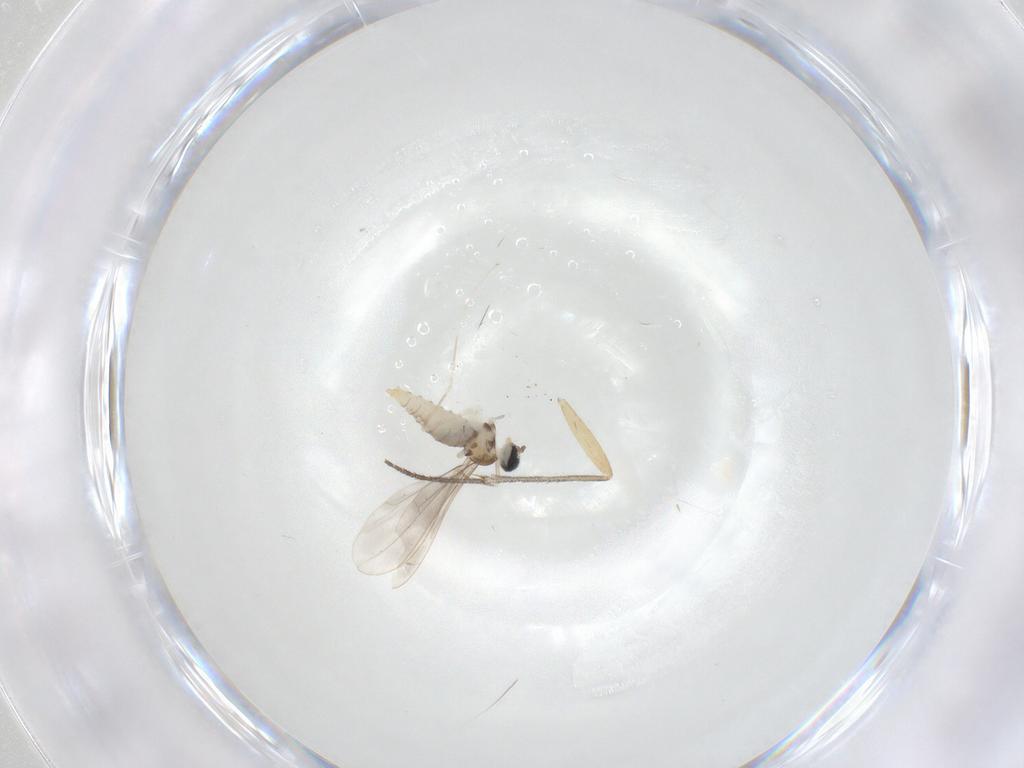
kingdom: Animalia
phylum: Arthropoda
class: Insecta
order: Diptera
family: Cecidomyiidae
